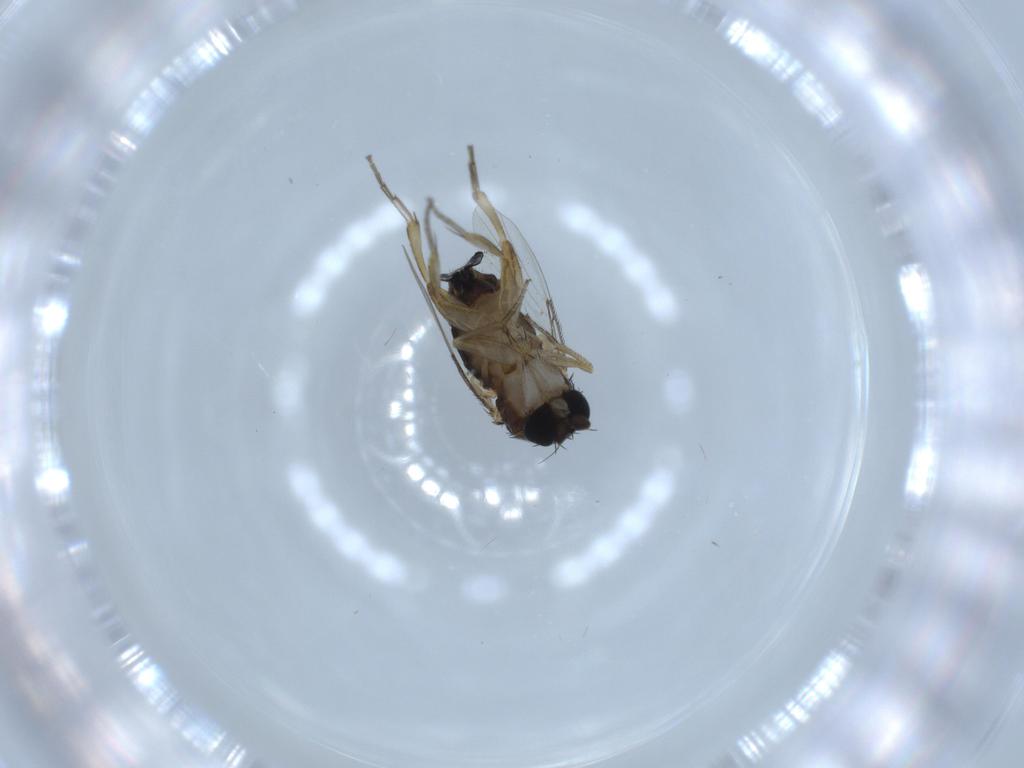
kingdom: Animalia
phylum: Arthropoda
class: Insecta
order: Diptera
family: Phoridae
